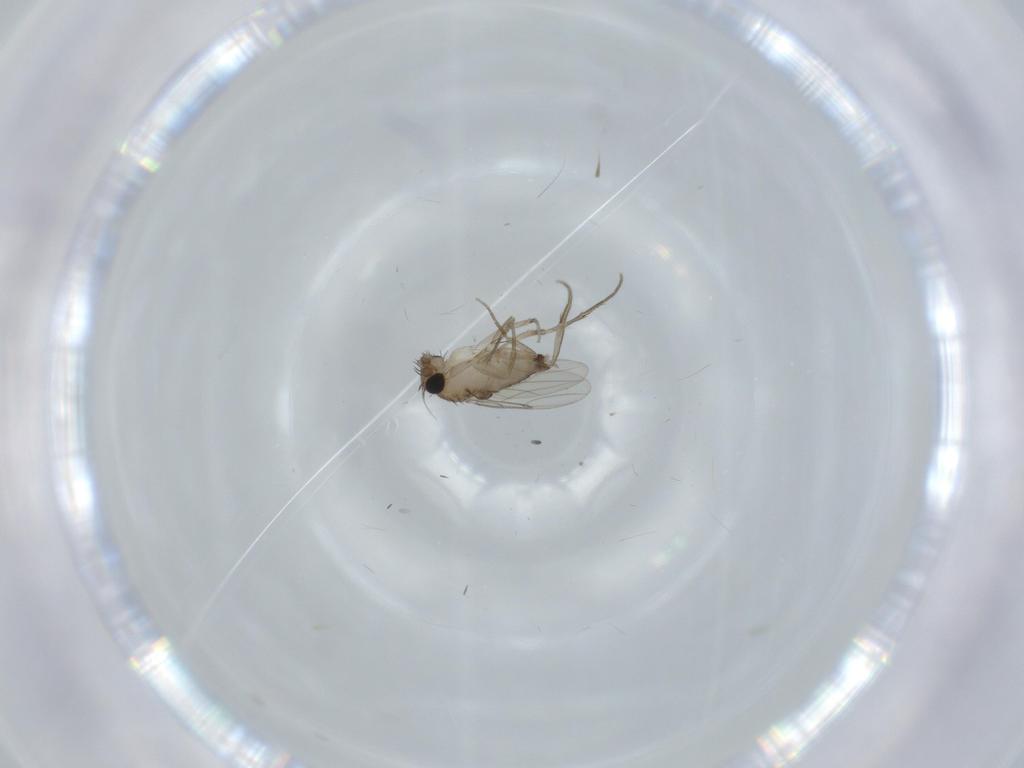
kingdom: Animalia
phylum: Arthropoda
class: Insecta
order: Diptera
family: Phoridae
